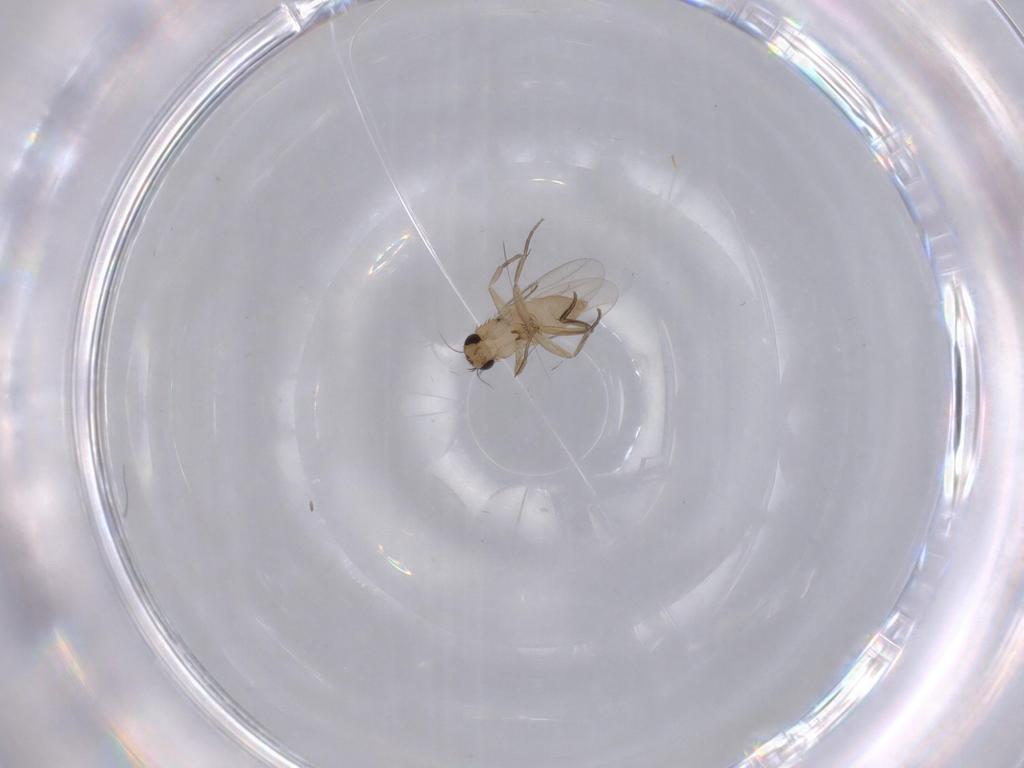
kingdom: Animalia
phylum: Arthropoda
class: Insecta
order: Diptera
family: Phoridae
